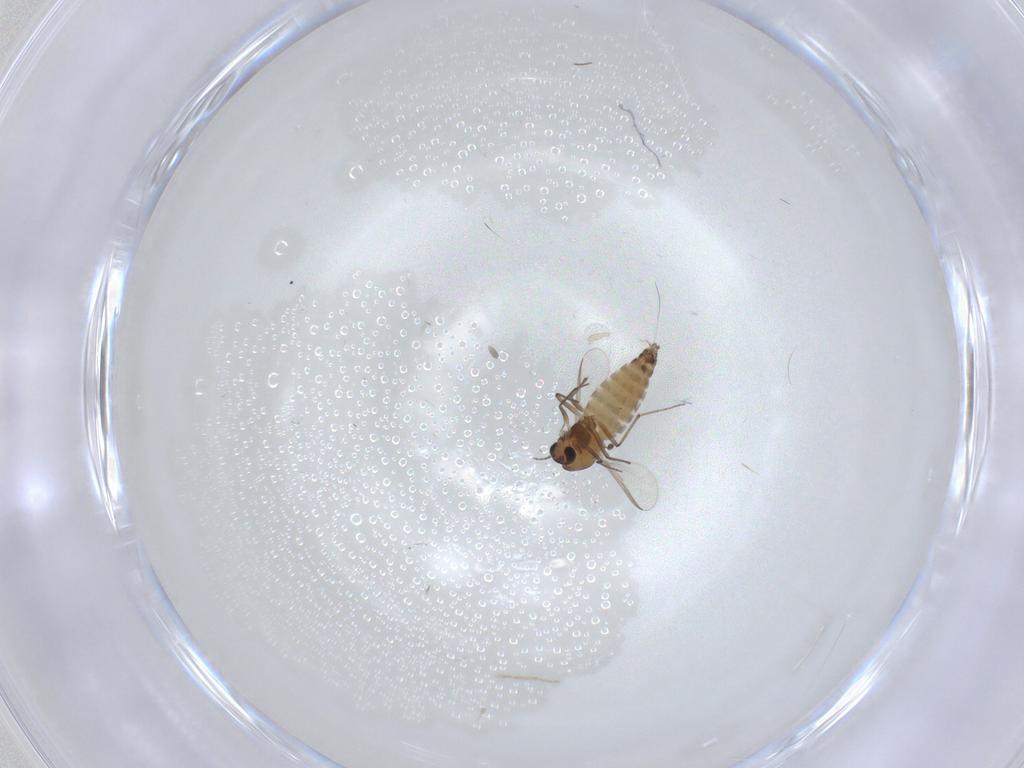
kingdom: Animalia
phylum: Arthropoda
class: Insecta
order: Diptera
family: Chironomidae
